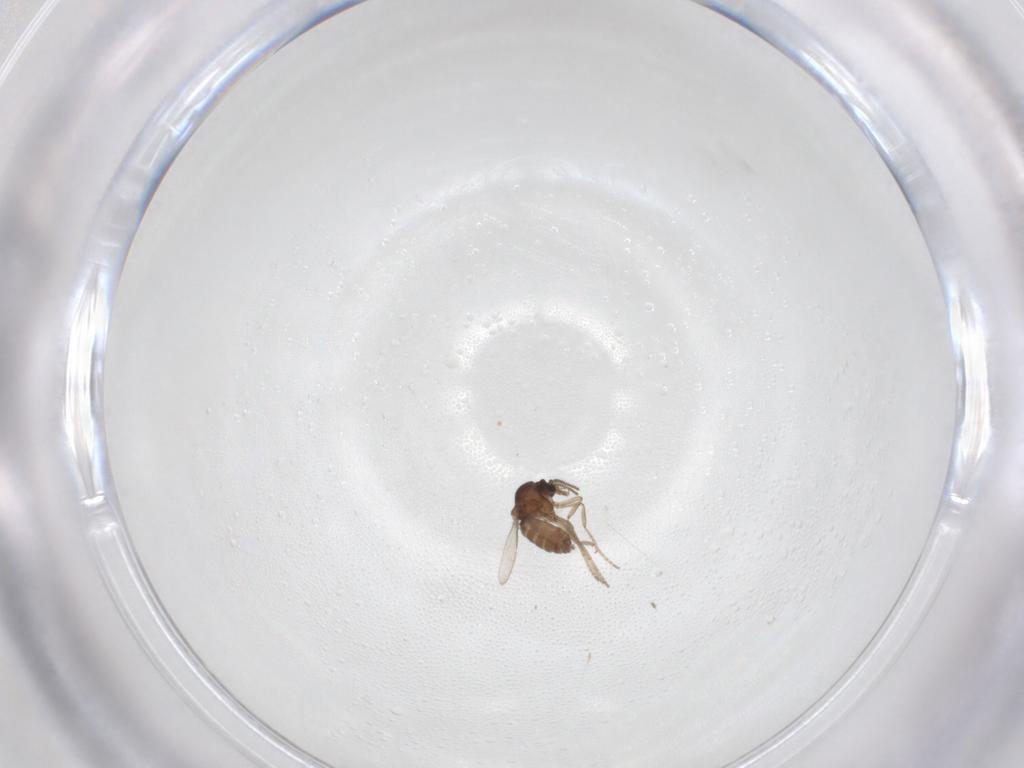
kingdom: Animalia
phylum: Arthropoda
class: Insecta
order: Diptera
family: Ceratopogonidae
